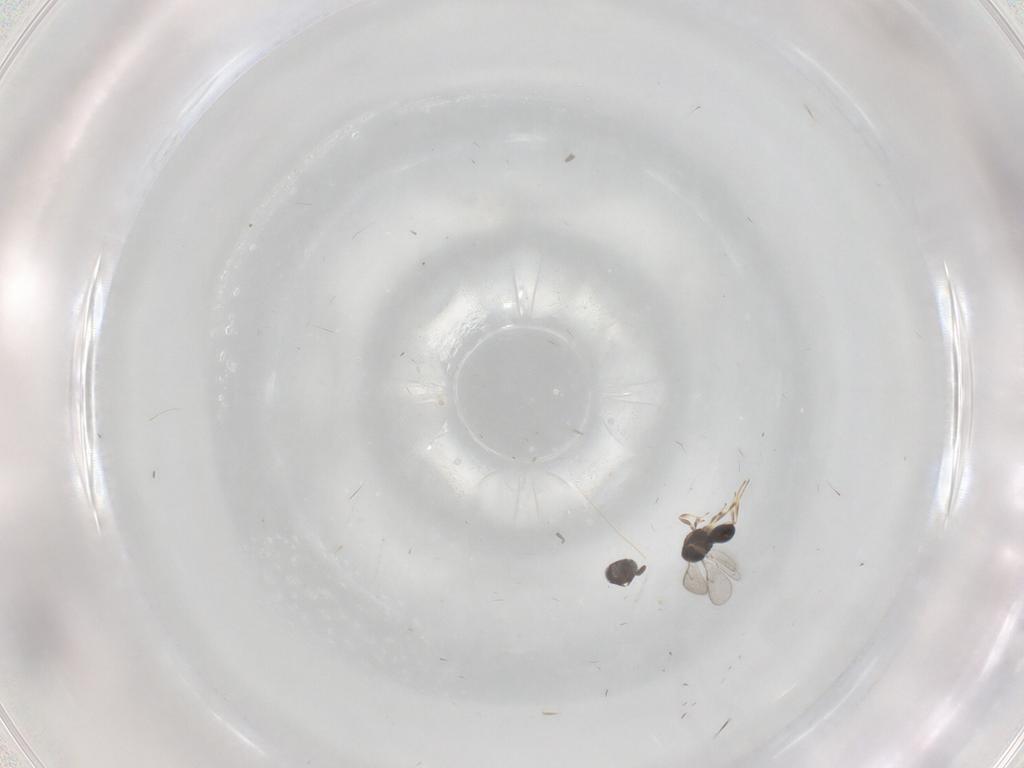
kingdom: Animalia
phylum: Arthropoda
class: Insecta
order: Hymenoptera
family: Scelionidae
